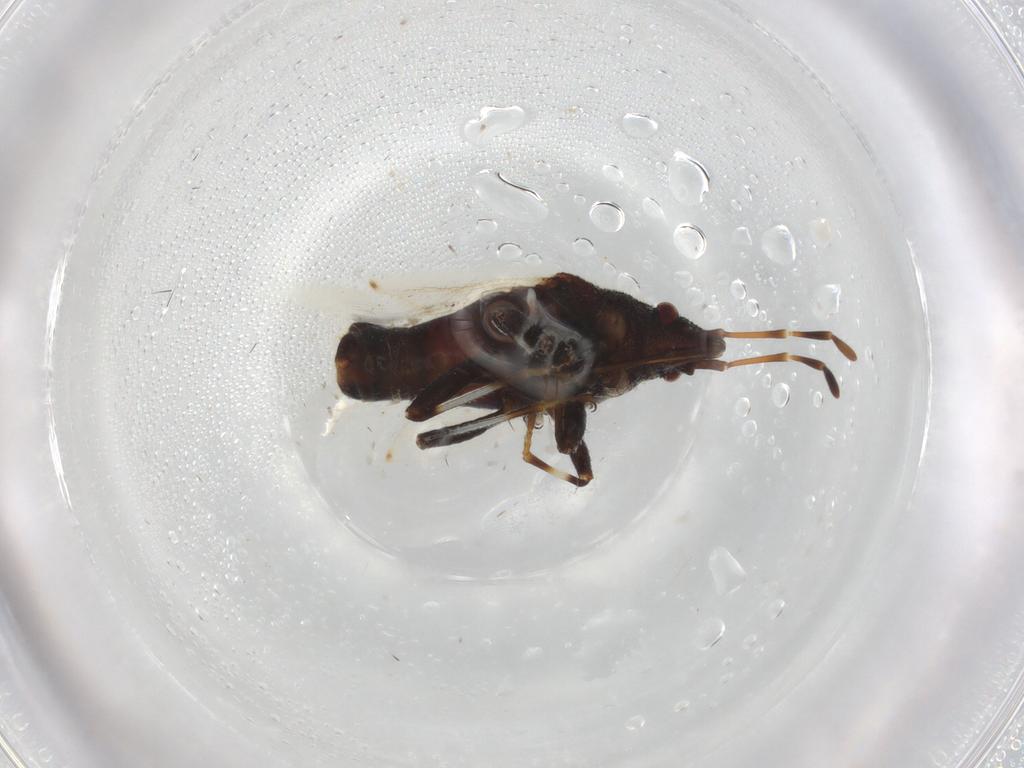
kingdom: Animalia
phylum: Arthropoda
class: Insecta
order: Hemiptera
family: Oxycarenidae
